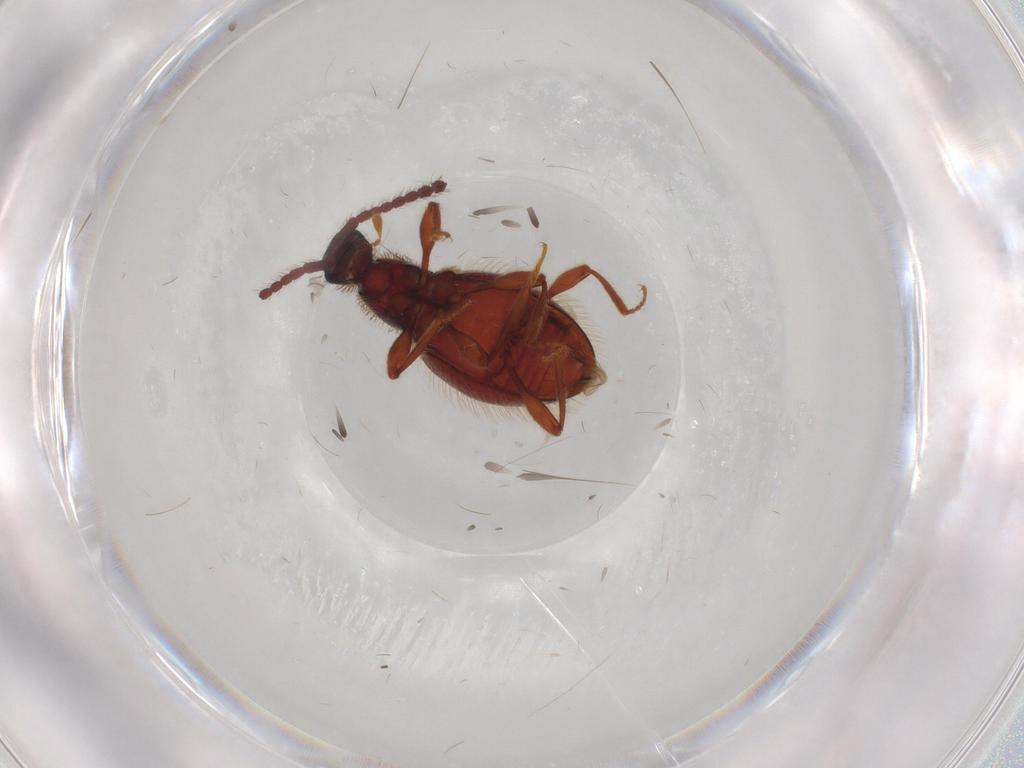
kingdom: Animalia
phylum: Arthropoda
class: Insecta
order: Coleoptera
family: Staphylinidae
